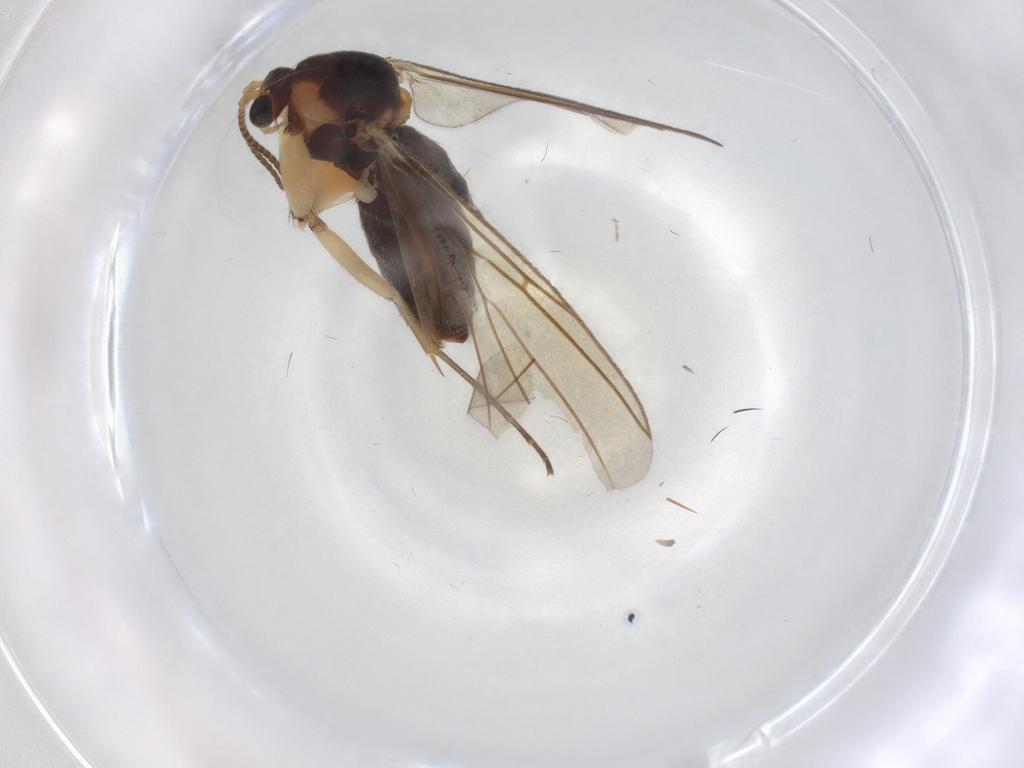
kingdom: Animalia
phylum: Arthropoda
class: Insecta
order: Diptera
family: Mycetophilidae
